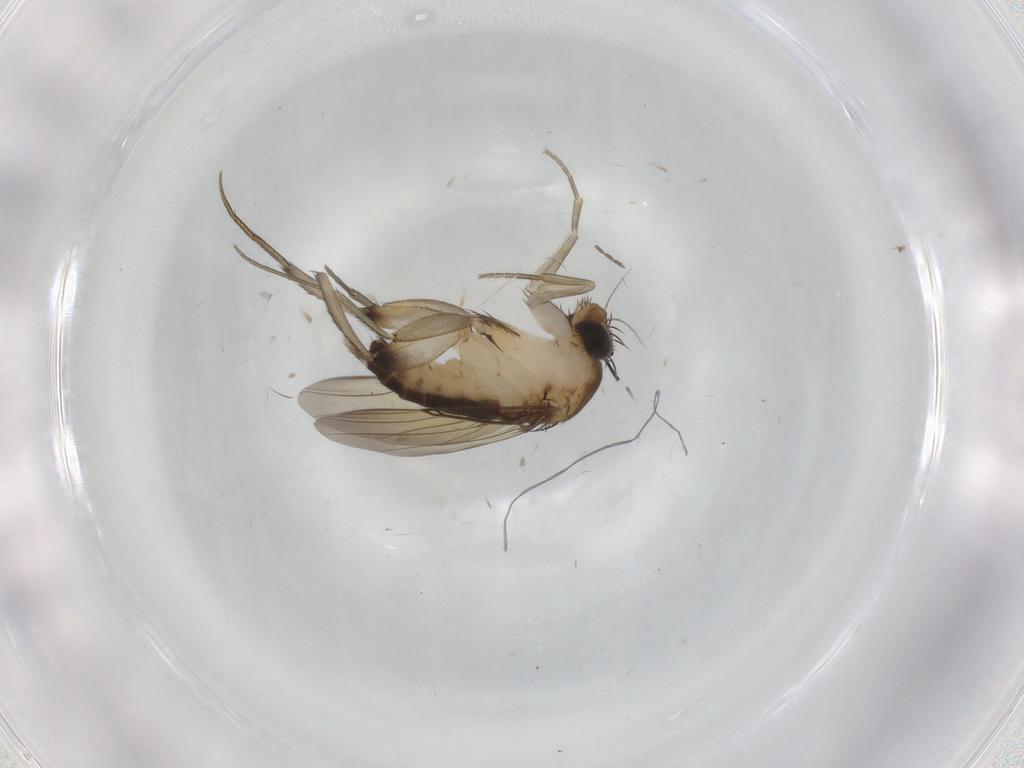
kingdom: Animalia
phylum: Arthropoda
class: Insecta
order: Diptera
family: Phoridae
